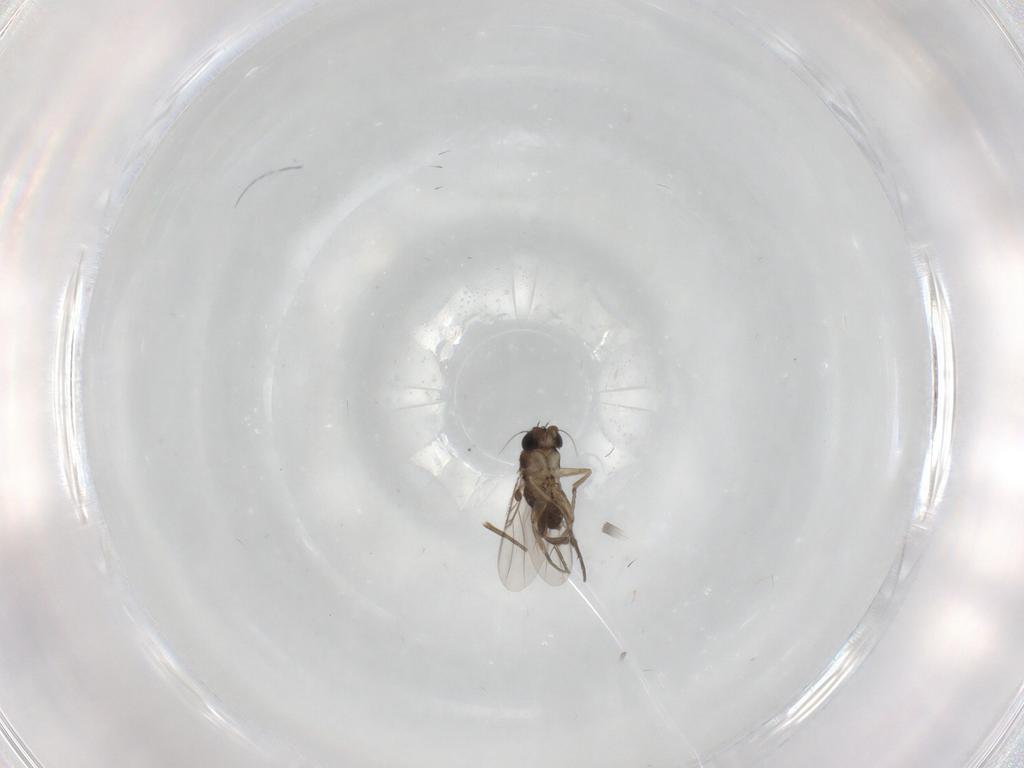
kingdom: Animalia
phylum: Arthropoda
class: Insecta
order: Diptera
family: Phoridae
